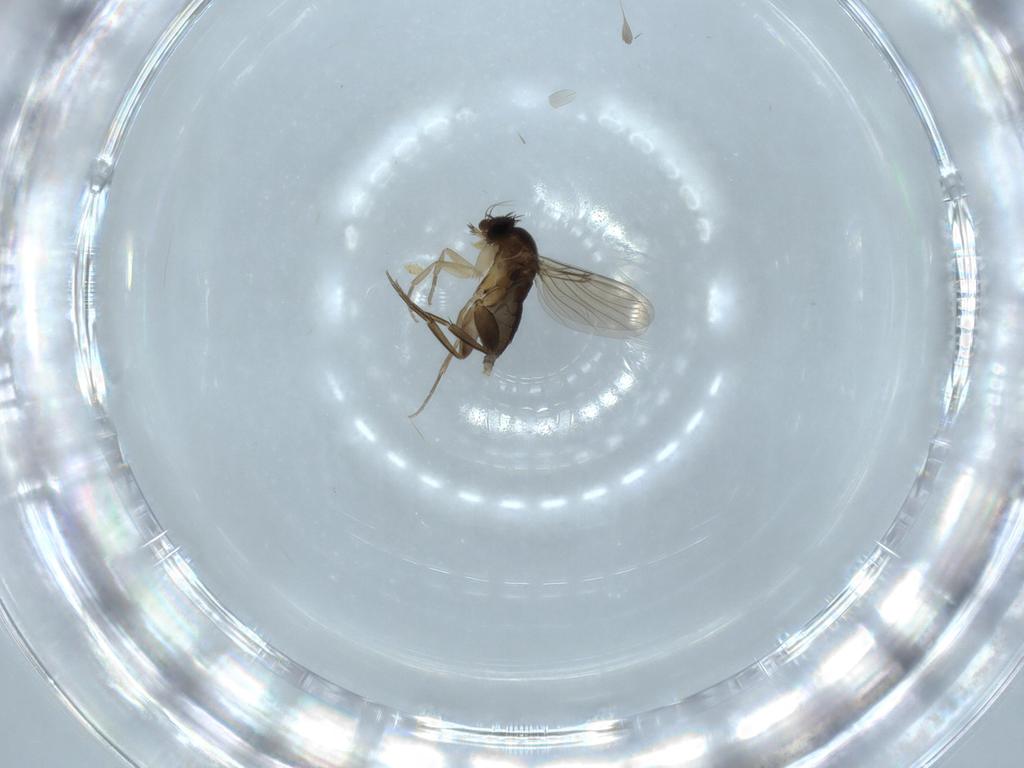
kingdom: Animalia
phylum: Arthropoda
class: Insecta
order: Diptera
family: Phoridae
